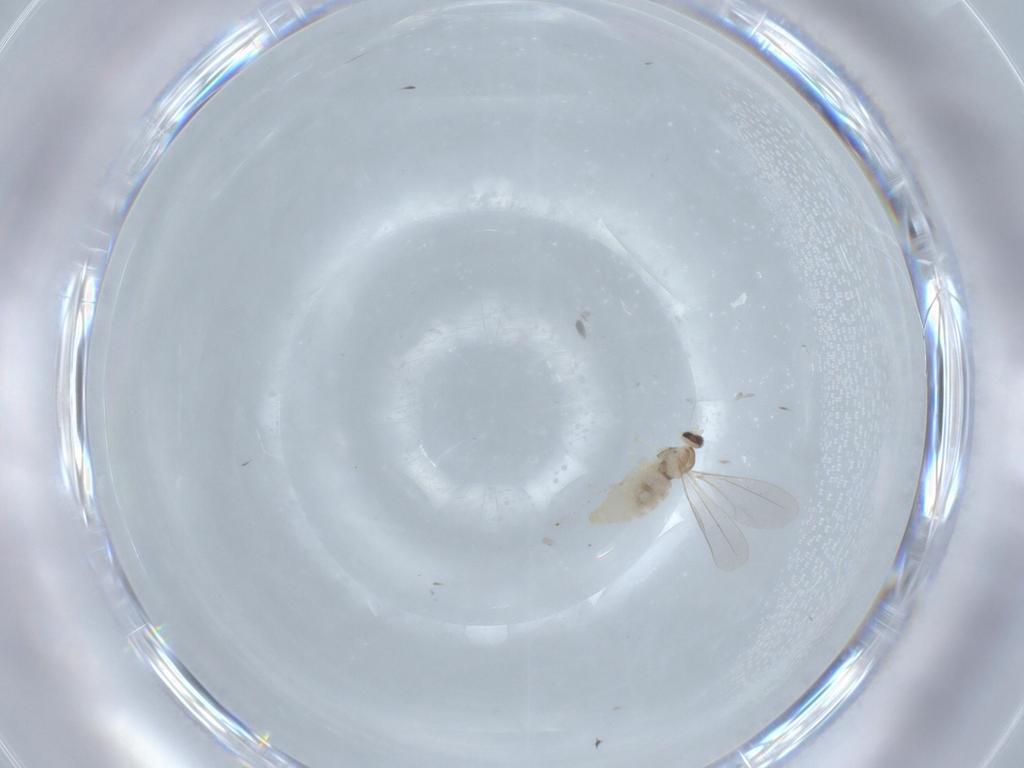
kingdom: Animalia
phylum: Arthropoda
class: Insecta
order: Diptera
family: Cecidomyiidae
